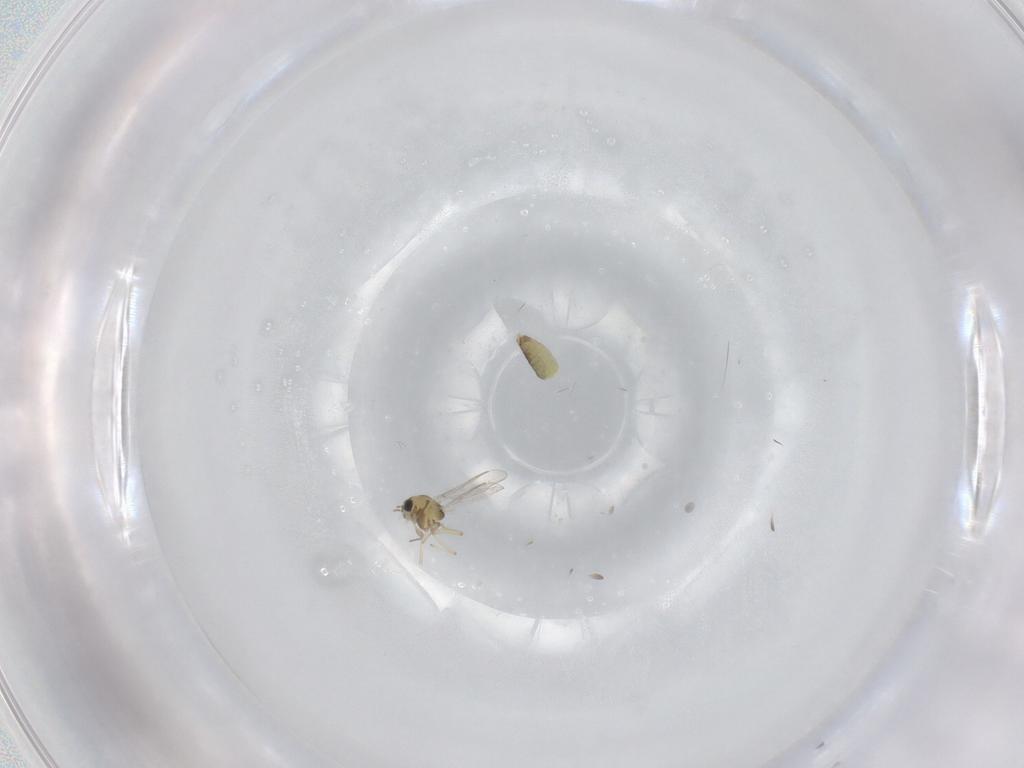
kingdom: Animalia
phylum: Arthropoda
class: Insecta
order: Diptera
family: Chironomidae
